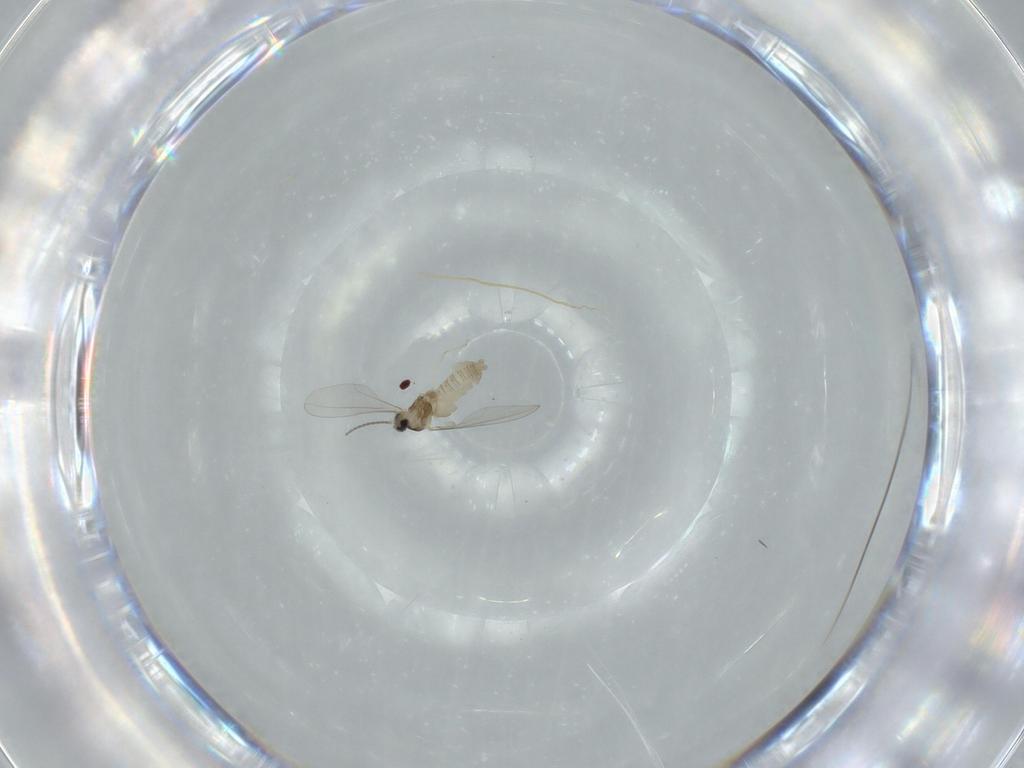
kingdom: Animalia
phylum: Arthropoda
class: Insecta
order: Diptera
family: Cecidomyiidae
